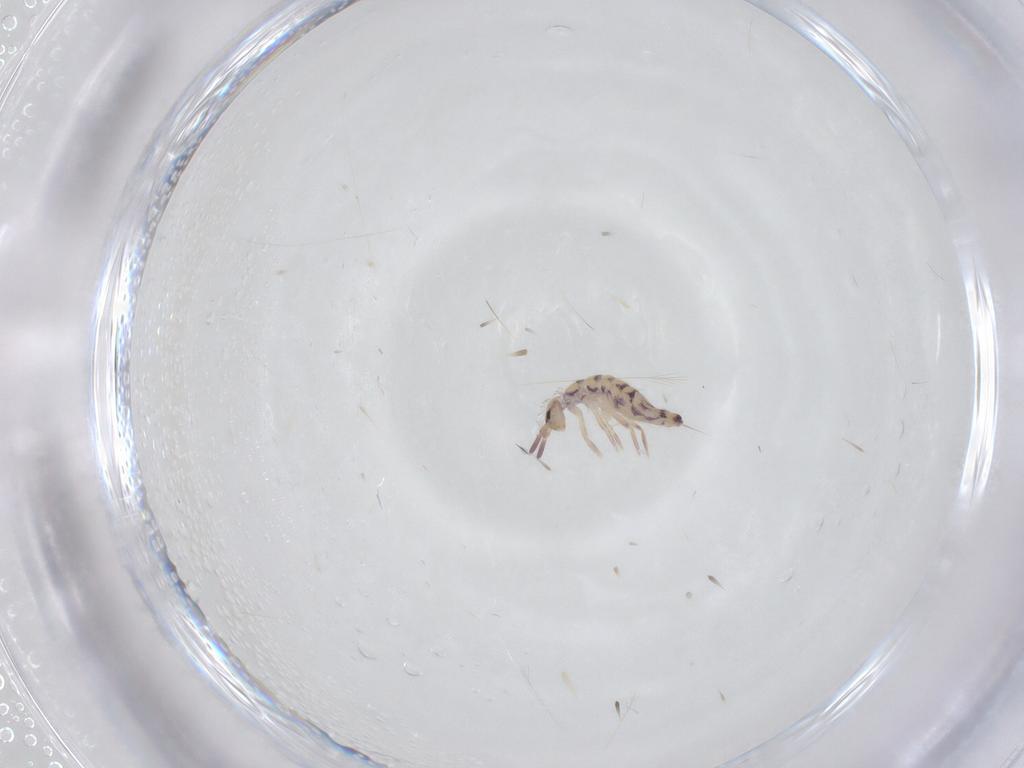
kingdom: Animalia
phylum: Arthropoda
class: Collembola
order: Entomobryomorpha
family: Entomobryidae
